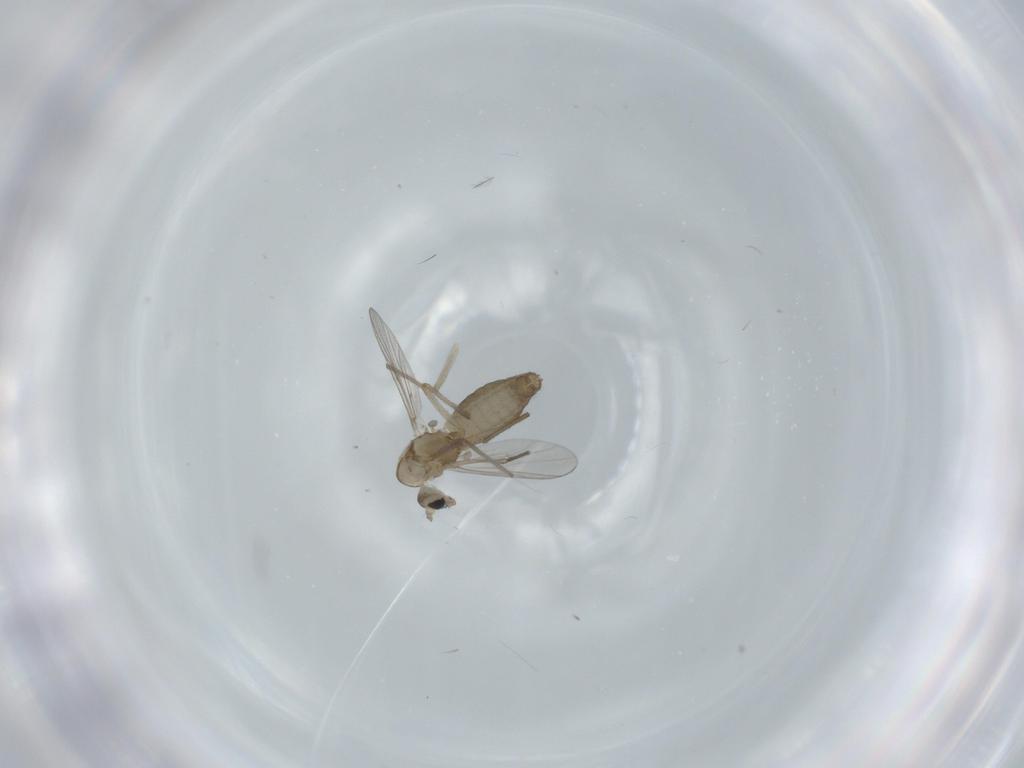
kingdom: Animalia
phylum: Arthropoda
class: Insecta
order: Diptera
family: Chironomidae
